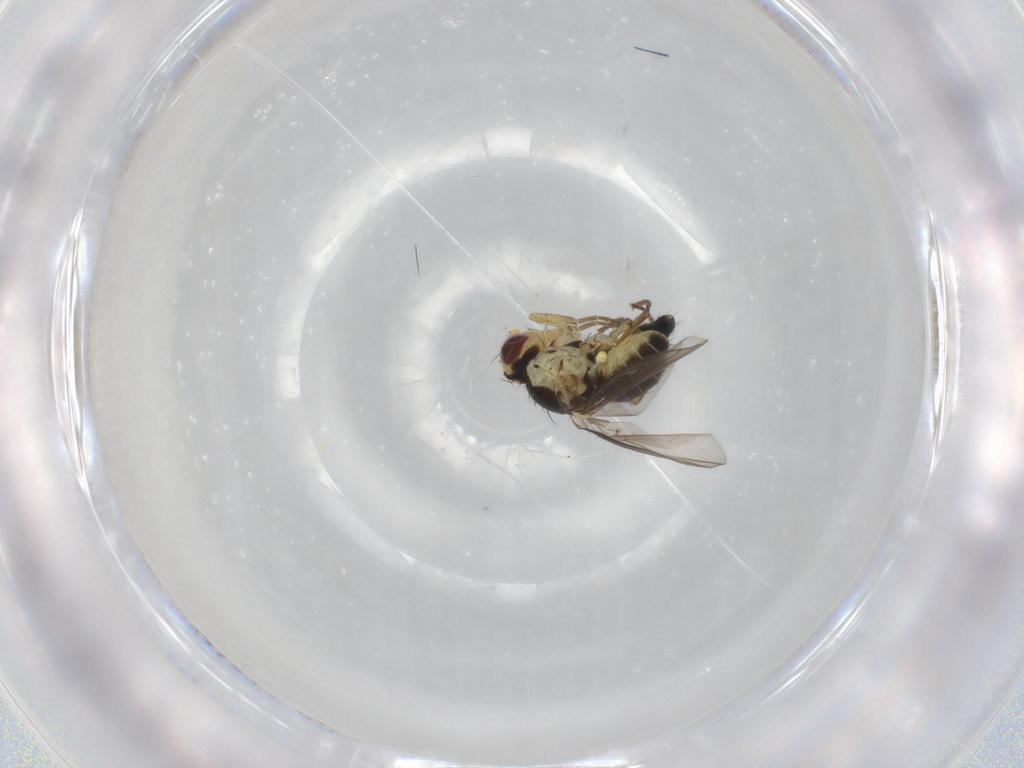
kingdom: Animalia
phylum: Arthropoda
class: Insecta
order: Diptera
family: Agromyzidae
